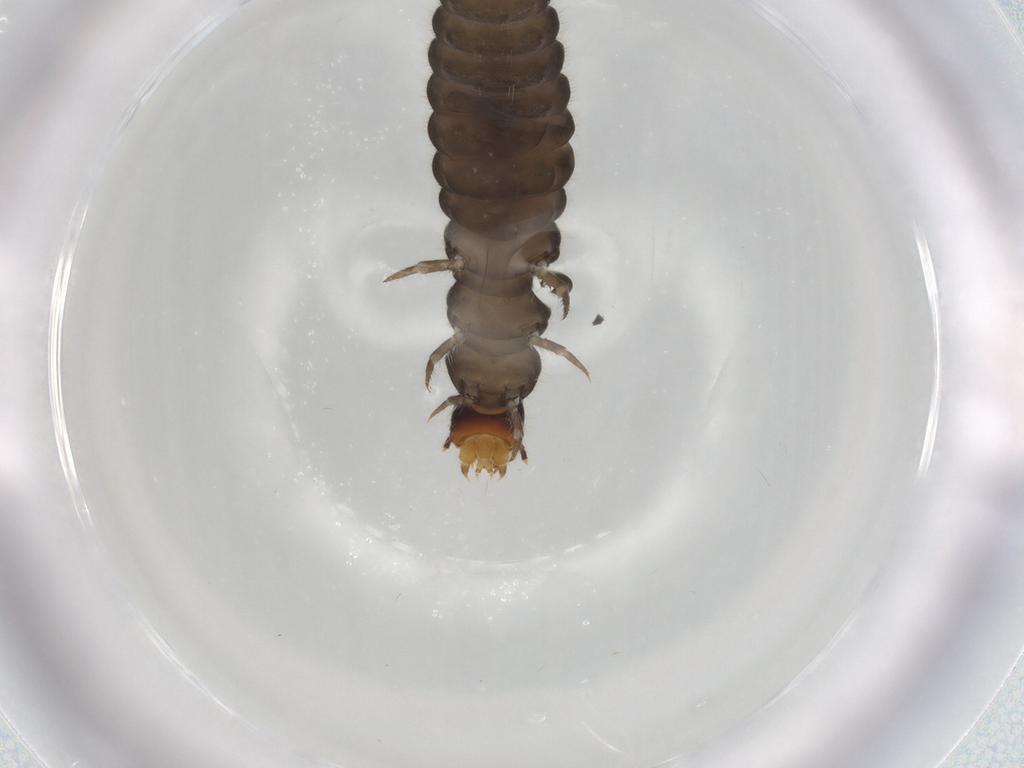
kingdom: Animalia
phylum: Arthropoda
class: Insecta
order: Coleoptera
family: Cantharidae
